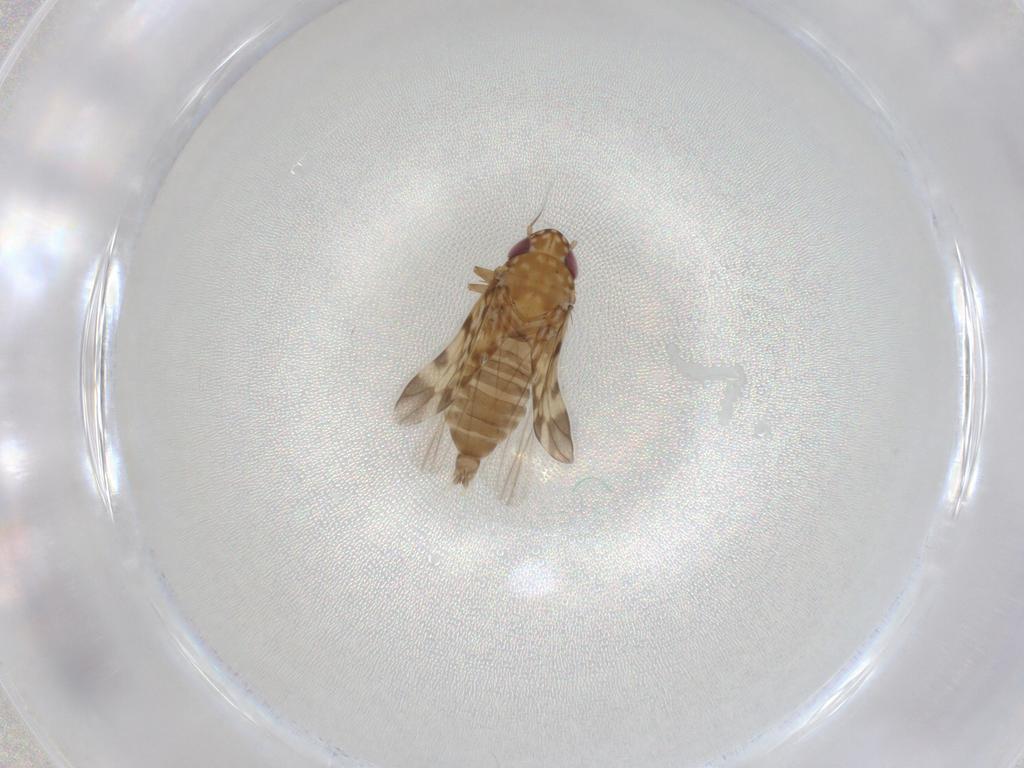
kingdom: Animalia
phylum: Arthropoda
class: Insecta
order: Hemiptera
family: Cicadellidae
